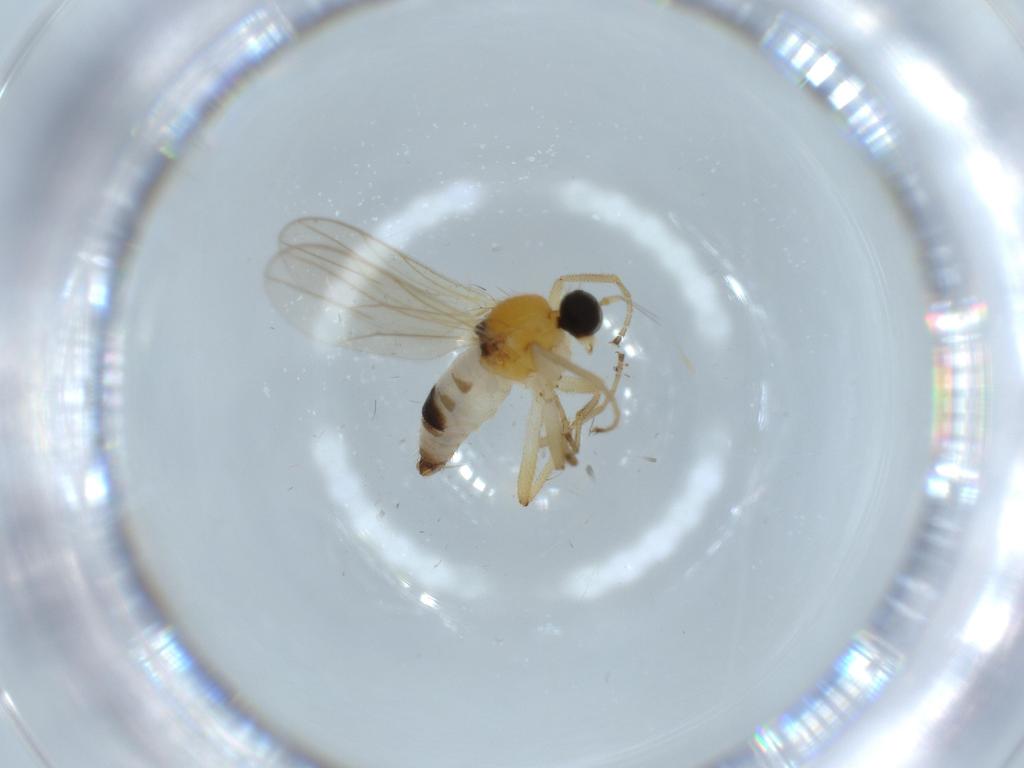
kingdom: Animalia
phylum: Arthropoda
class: Insecta
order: Diptera
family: Hybotidae
